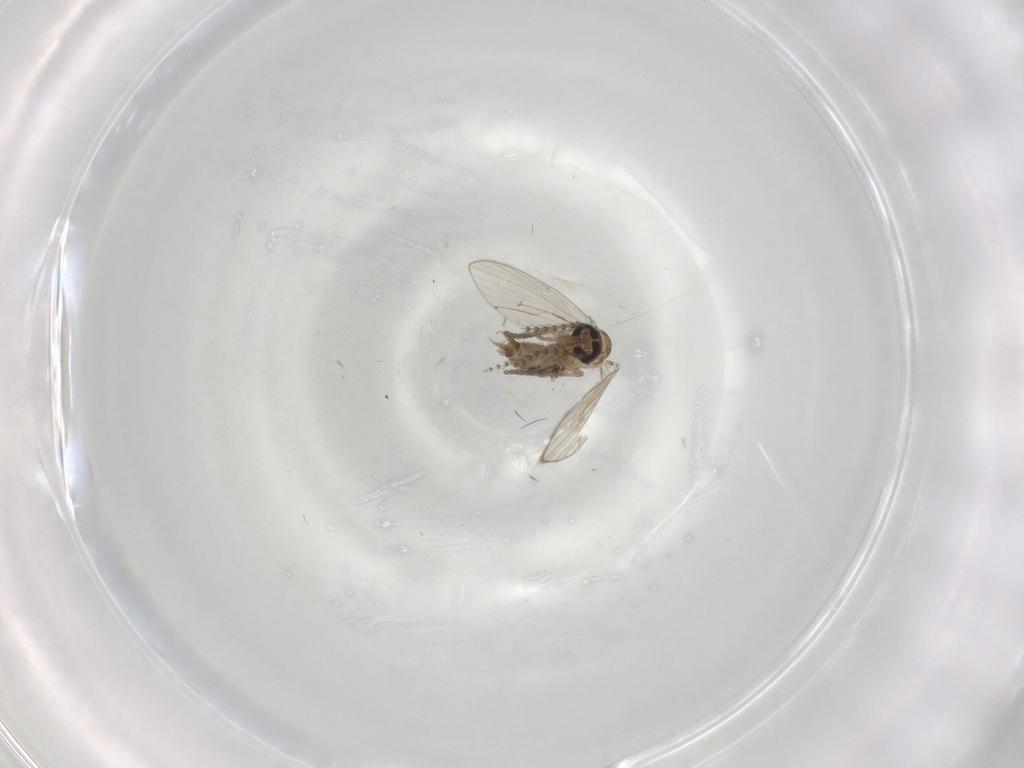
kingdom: Animalia
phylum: Arthropoda
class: Insecta
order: Diptera
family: Psychodidae
